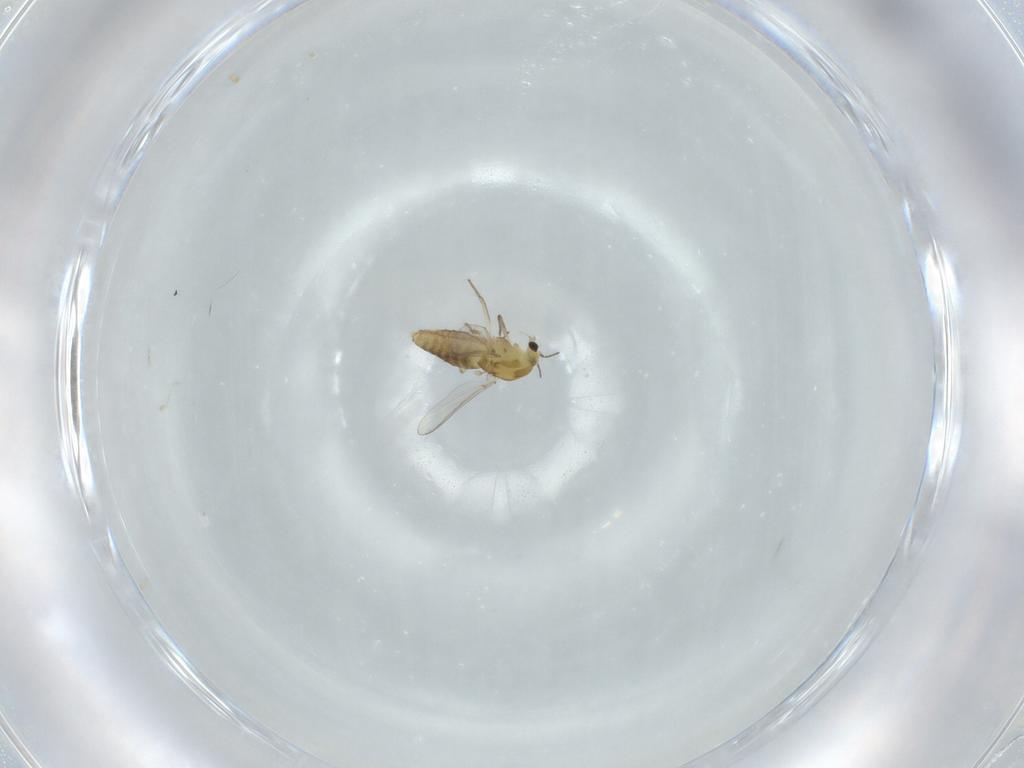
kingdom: Animalia
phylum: Arthropoda
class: Insecta
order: Diptera
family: Chironomidae
